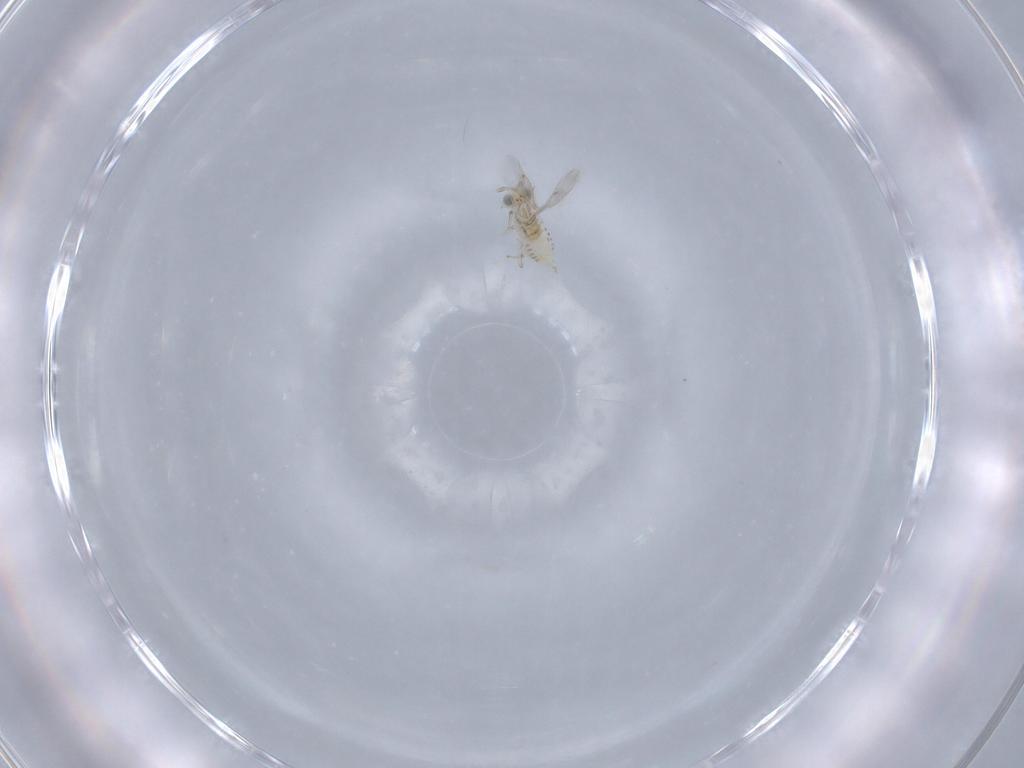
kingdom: Animalia
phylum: Arthropoda
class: Insecta
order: Hymenoptera
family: Aphelinidae
